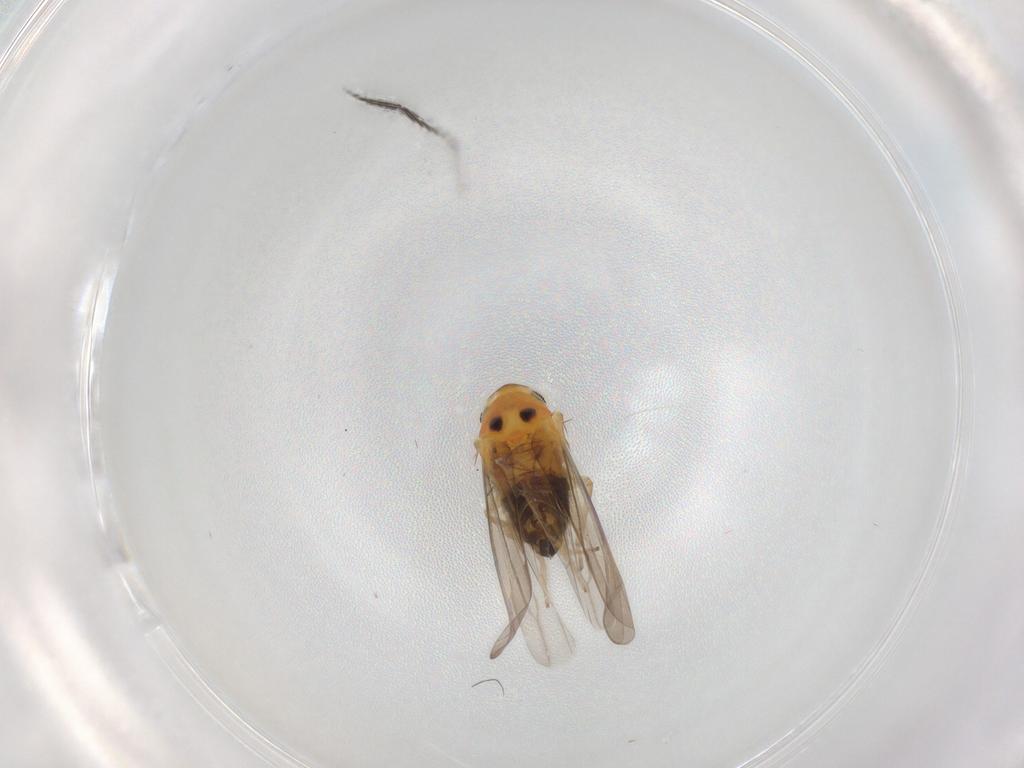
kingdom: Animalia
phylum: Arthropoda
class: Insecta
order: Hemiptera
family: Cicadellidae
